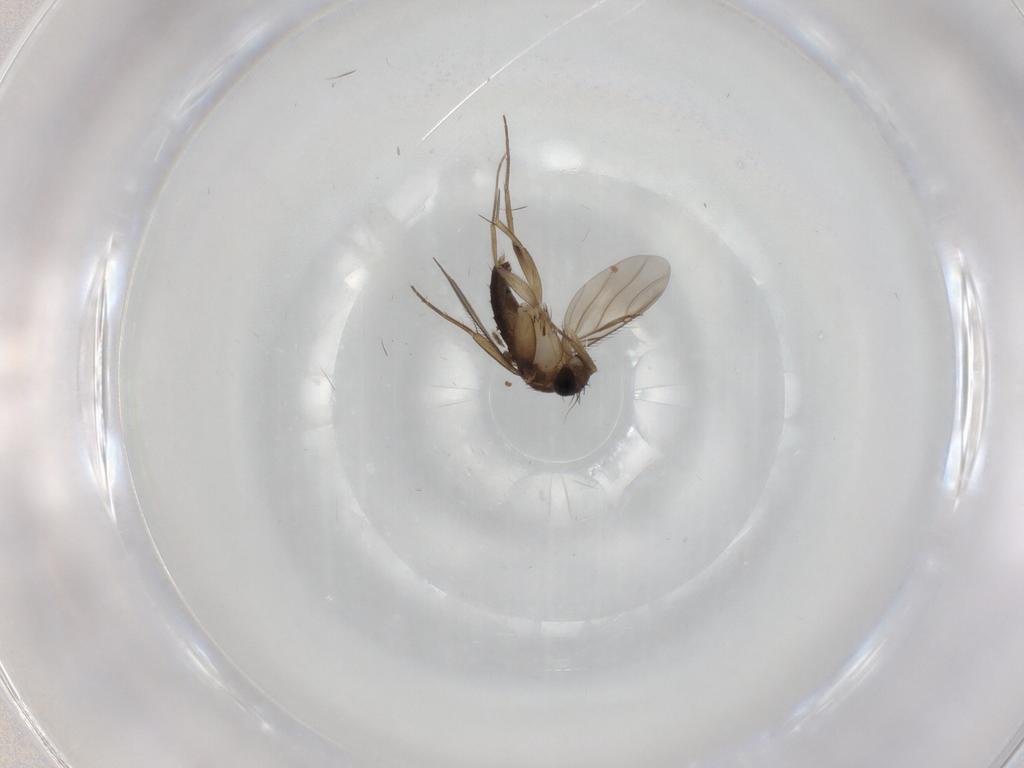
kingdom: Animalia
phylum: Arthropoda
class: Insecta
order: Diptera
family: Phoridae
